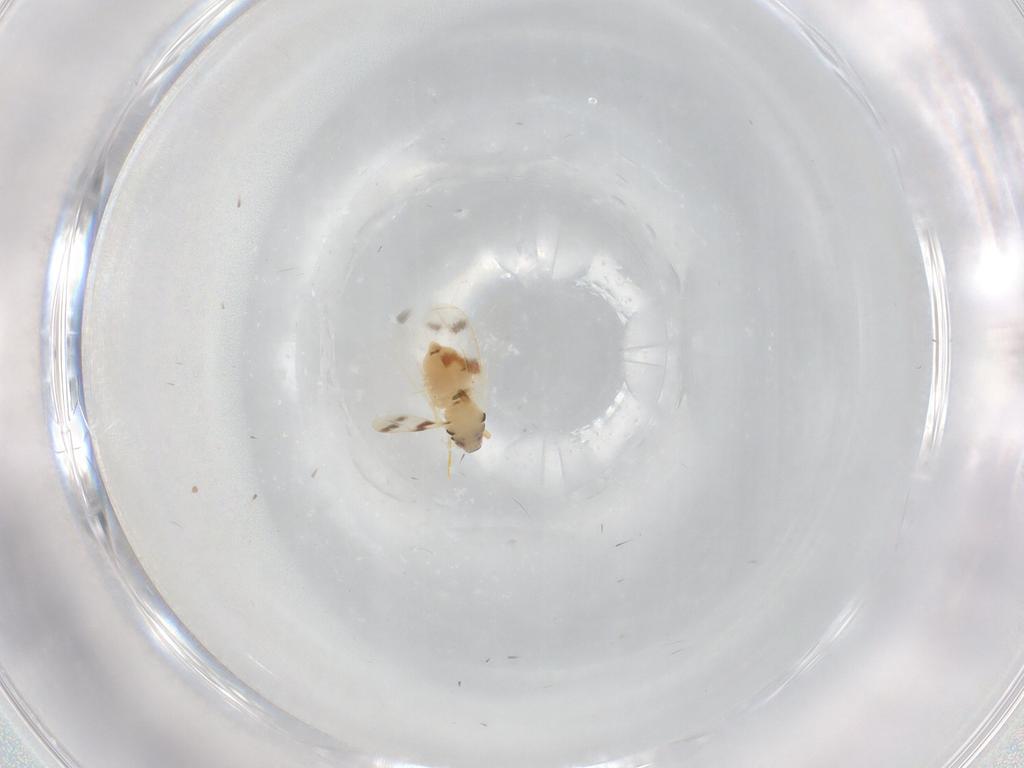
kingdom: Animalia
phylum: Arthropoda
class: Insecta
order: Hemiptera
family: Aleyrodidae
